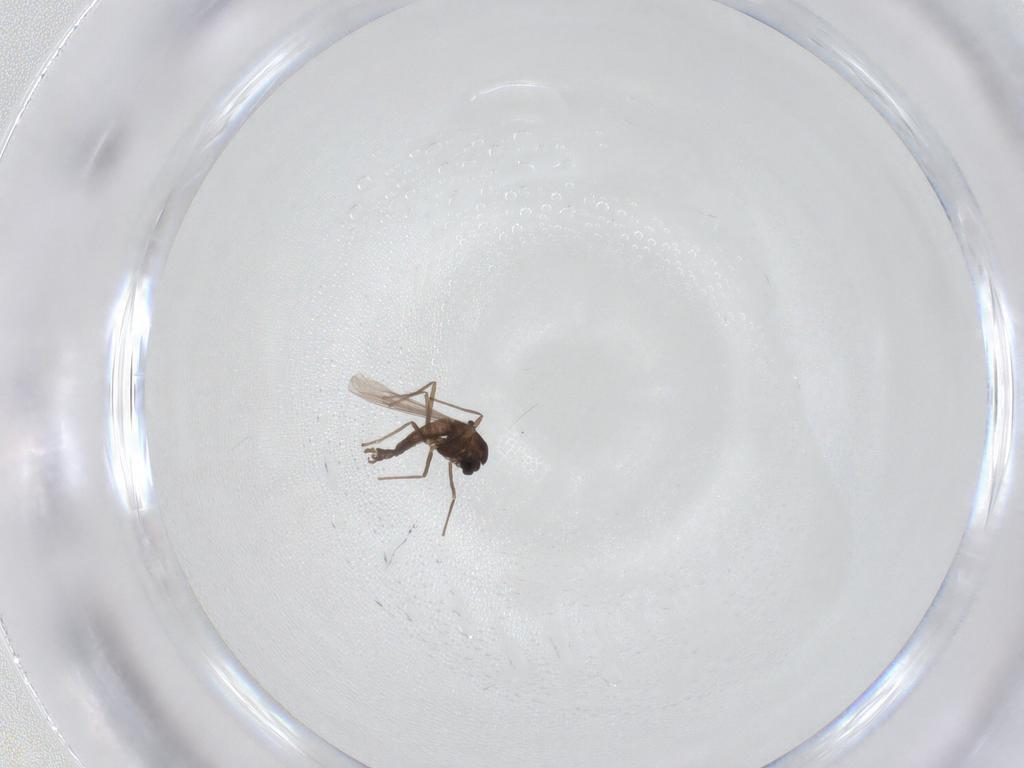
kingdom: Animalia
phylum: Arthropoda
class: Insecta
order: Diptera
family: Chironomidae
